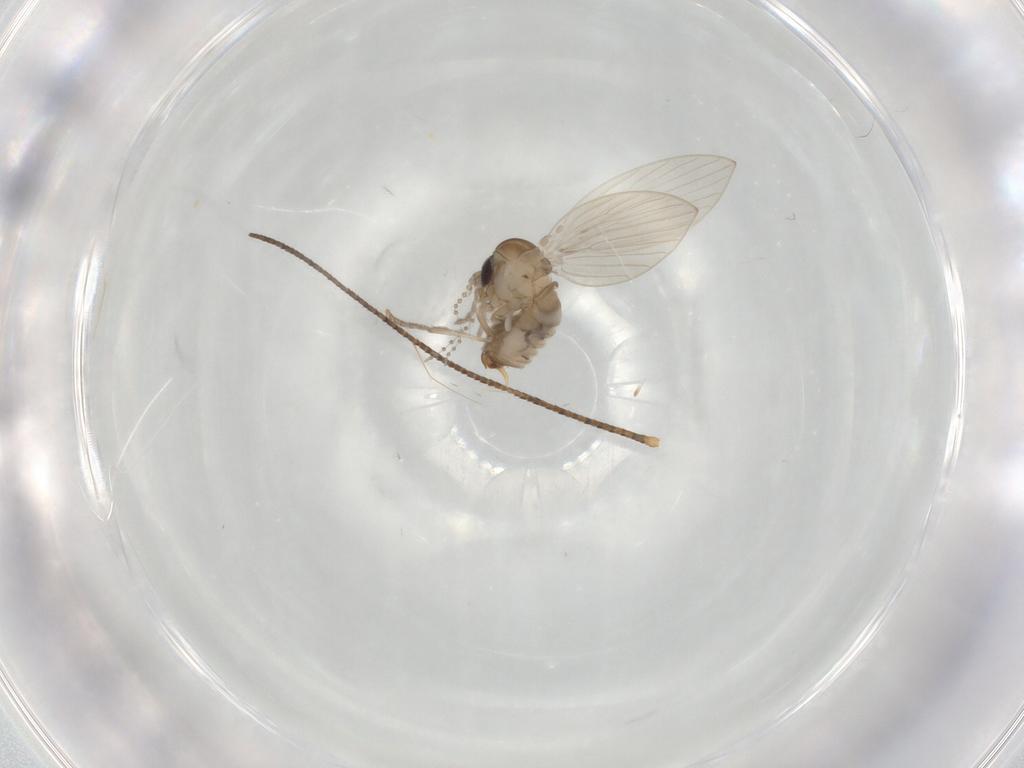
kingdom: Animalia
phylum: Arthropoda
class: Insecta
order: Diptera
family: Psychodidae
